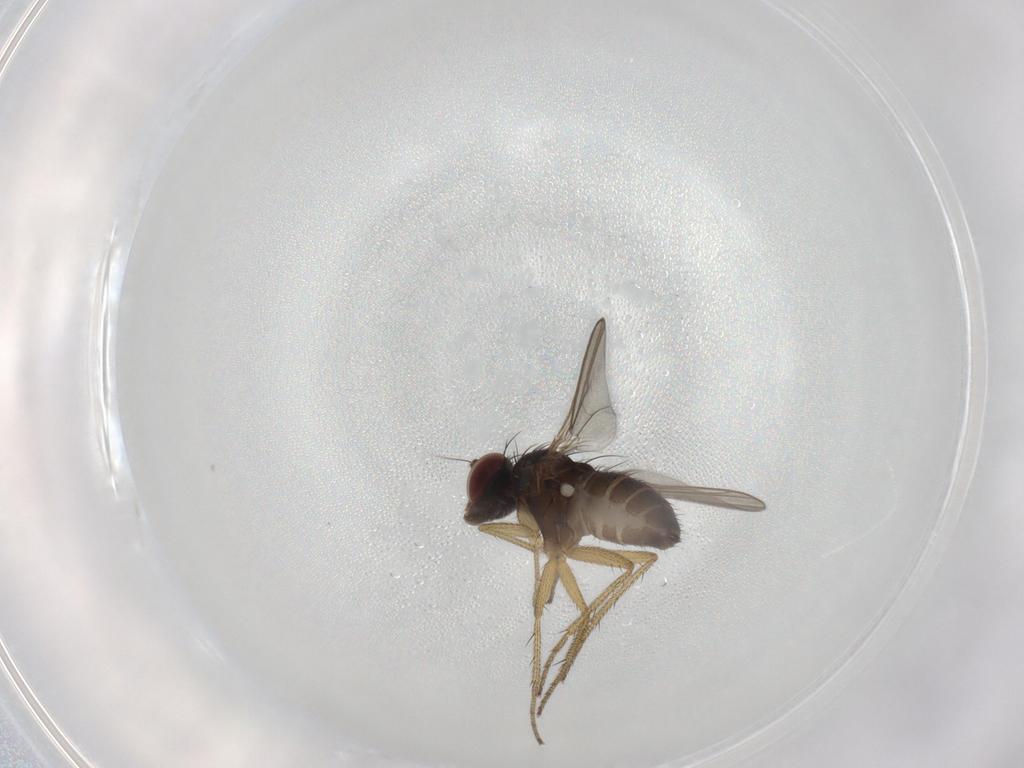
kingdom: Animalia
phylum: Arthropoda
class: Insecta
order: Diptera
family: Dolichopodidae
